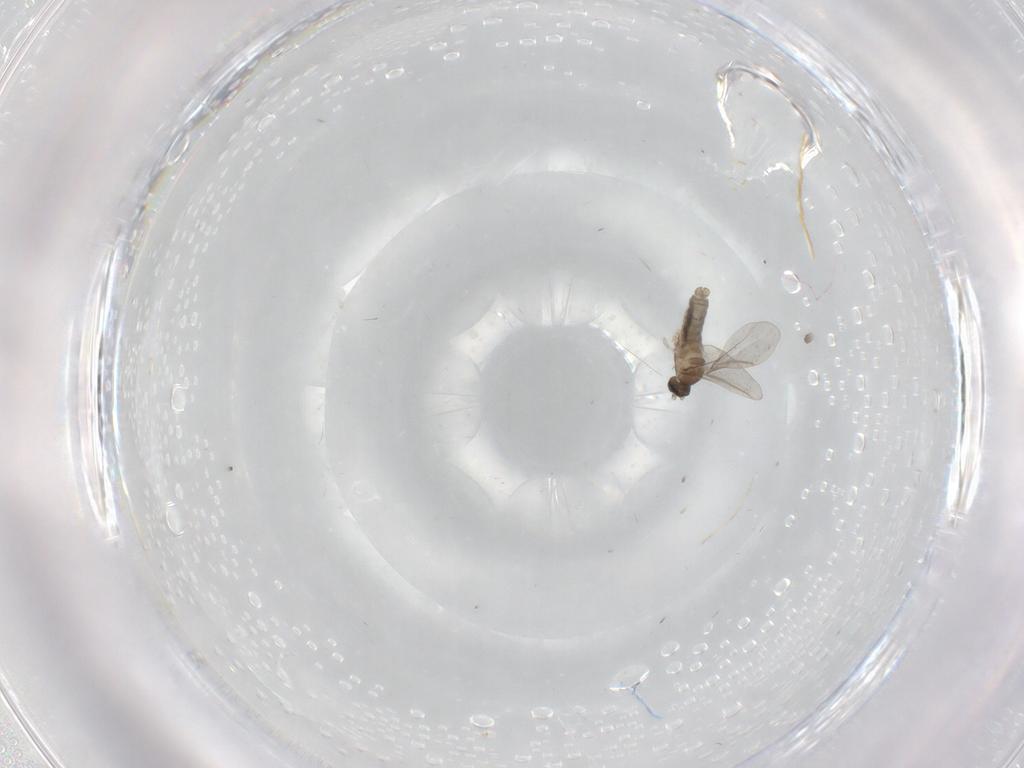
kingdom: Animalia
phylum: Arthropoda
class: Insecta
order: Diptera
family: Cecidomyiidae
